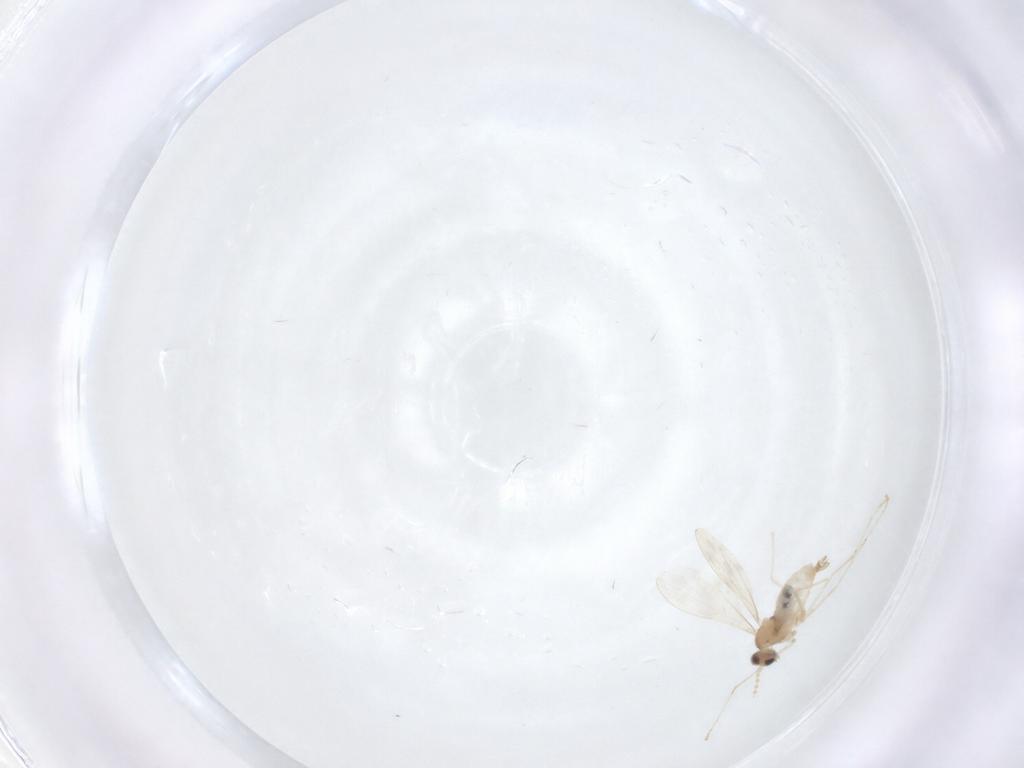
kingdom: Animalia
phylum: Arthropoda
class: Insecta
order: Diptera
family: Cecidomyiidae
